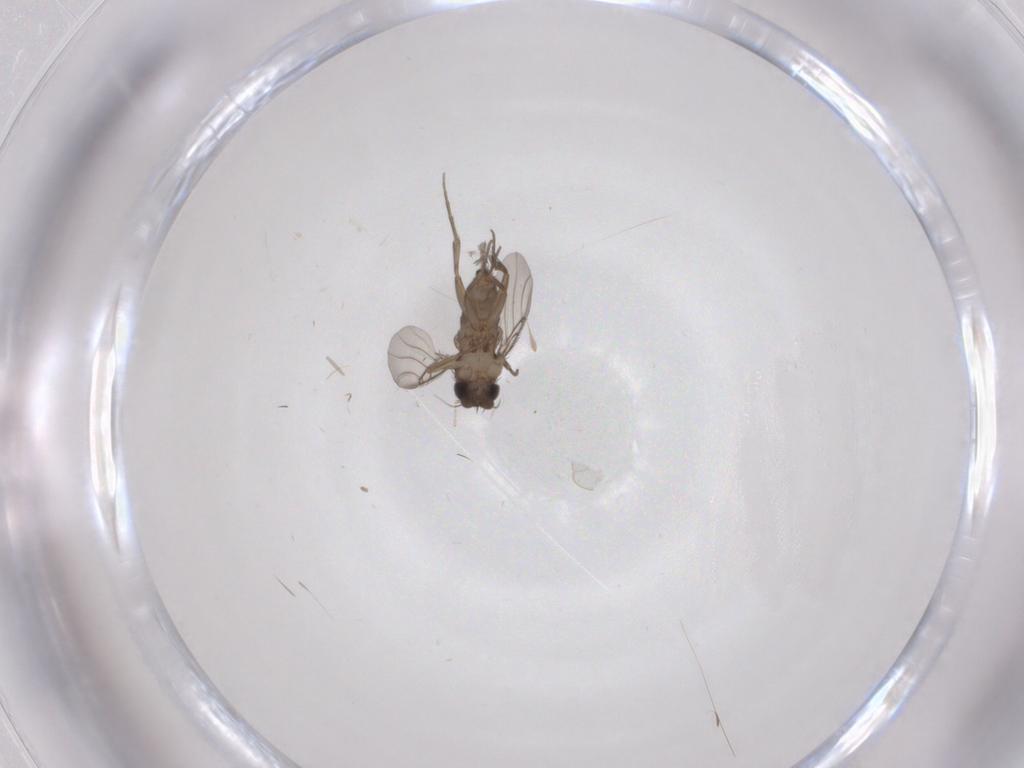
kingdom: Animalia
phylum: Arthropoda
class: Insecta
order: Diptera
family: Phoridae
